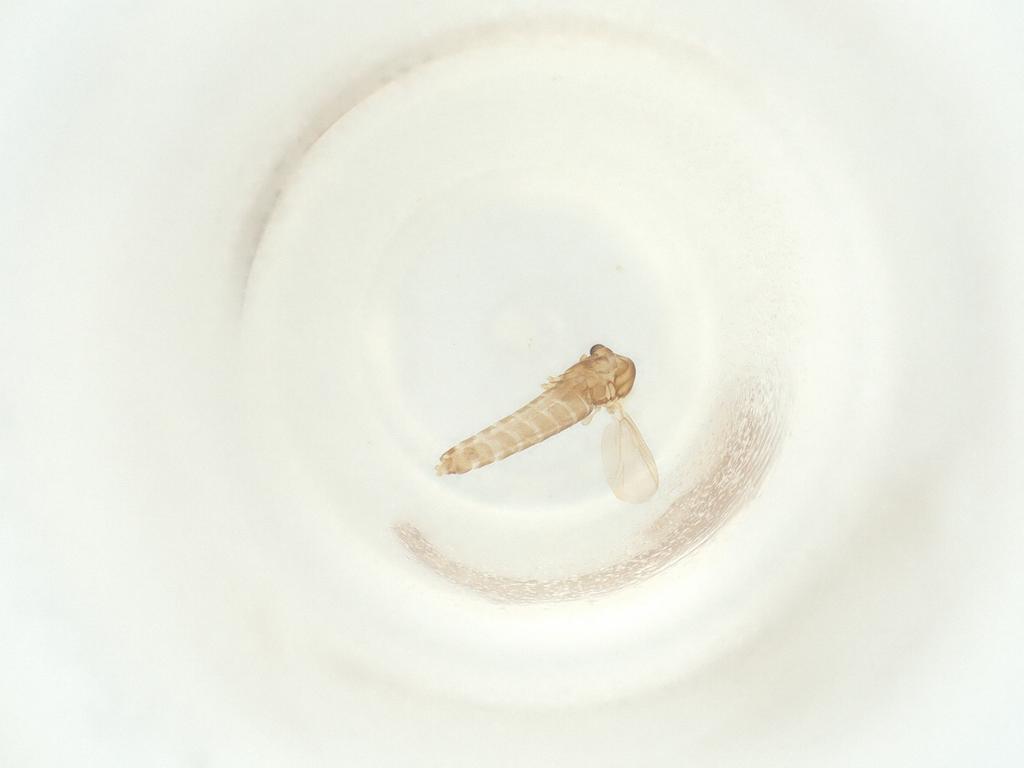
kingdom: Animalia
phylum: Arthropoda
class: Insecta
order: Diptera
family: Chironomidae
